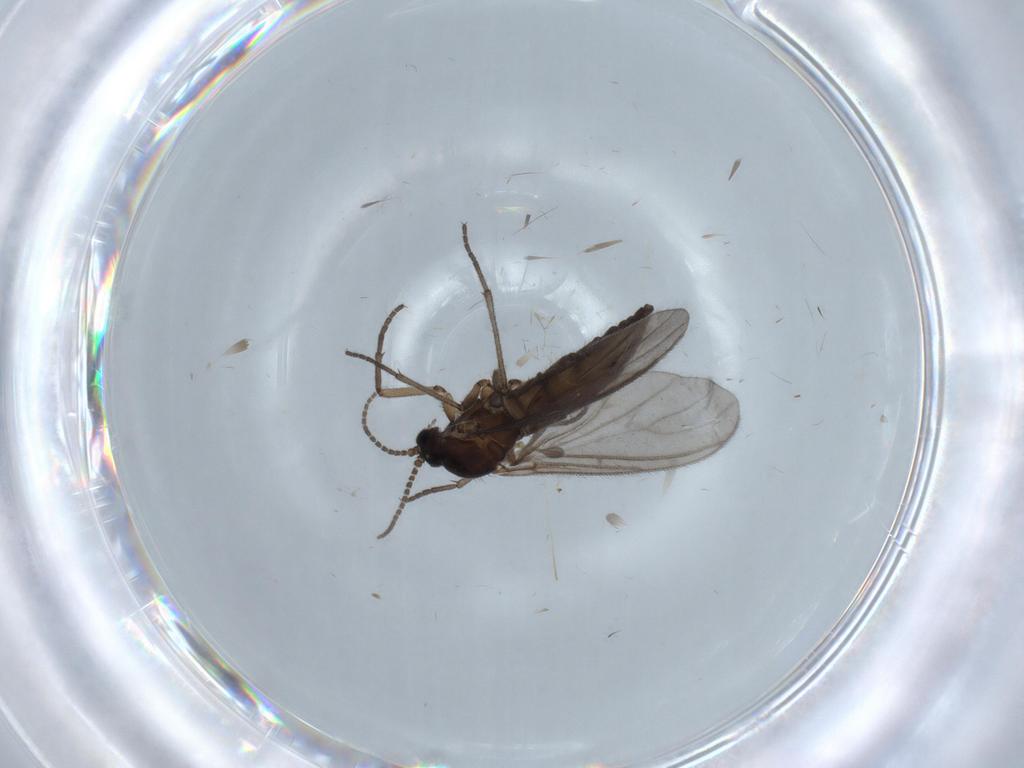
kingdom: Animalia
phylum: Arthropoda
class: Insecta
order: Diptera
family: Sciaridae
